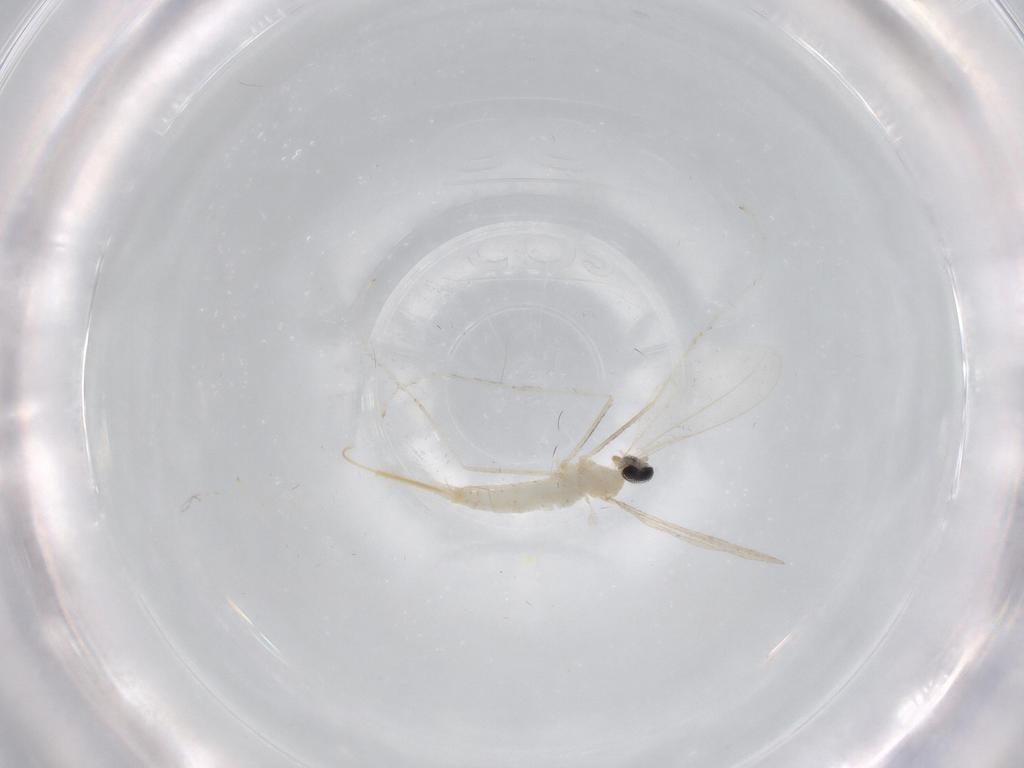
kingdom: Animalia
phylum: Arthropoda
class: Insecta
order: Diptera
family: Cecidomyiidae
